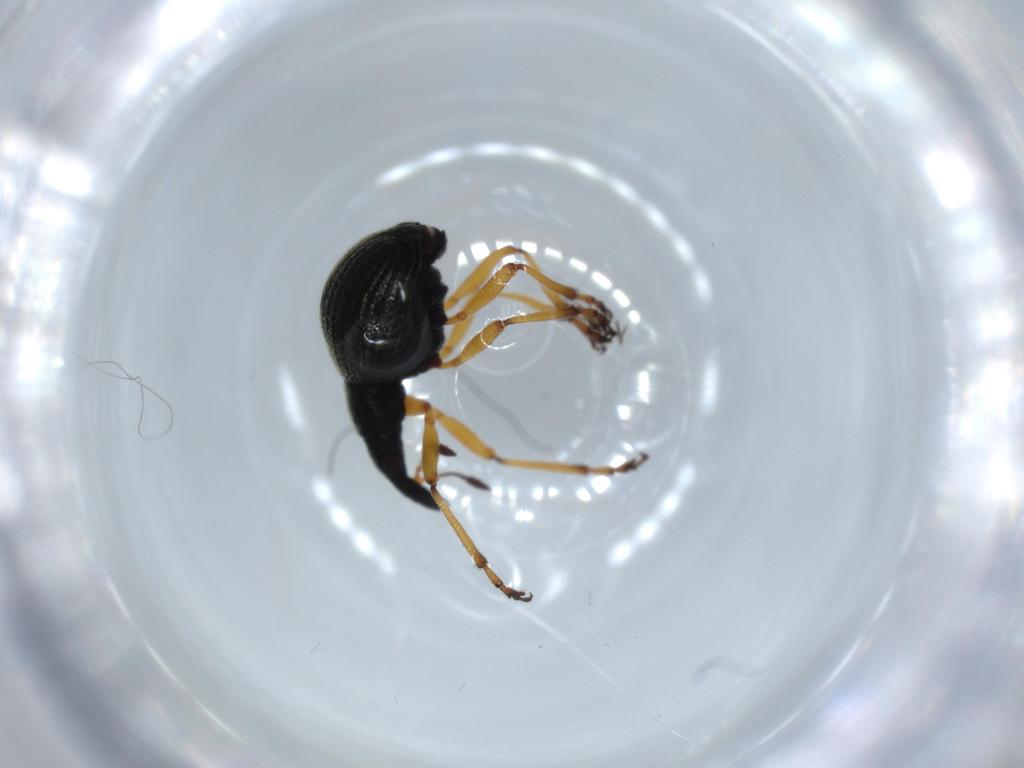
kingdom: Animalia
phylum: Arthropoda
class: Insecta
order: Coleoptera
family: Brentidae
